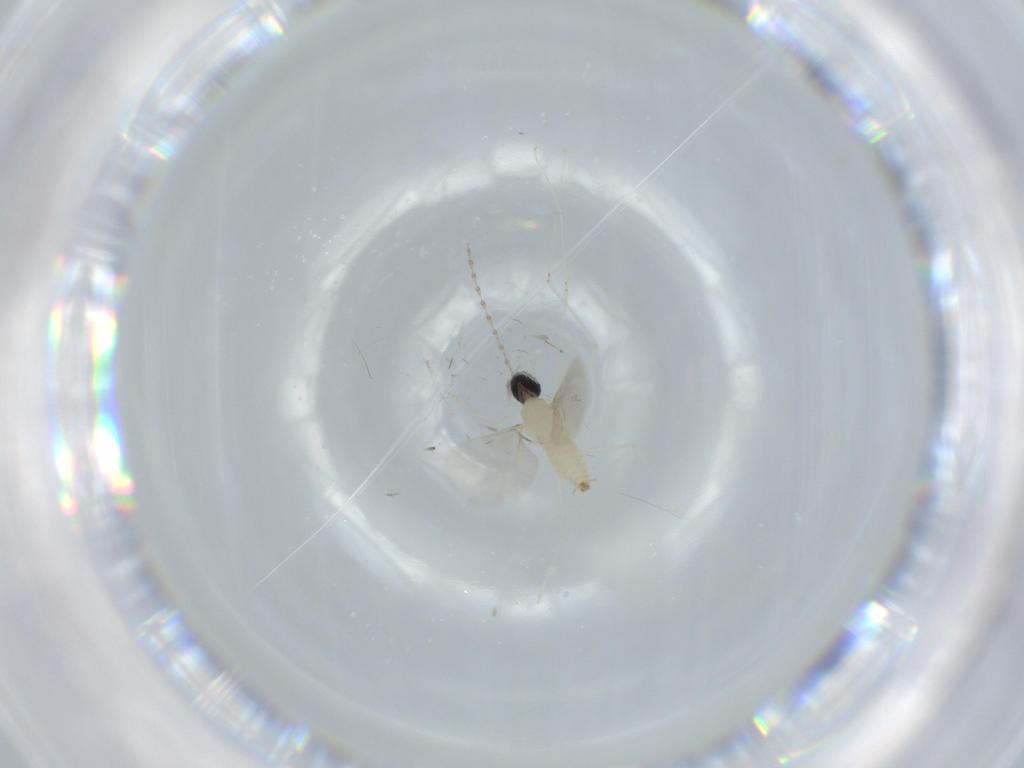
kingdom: Animalia
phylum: Arthropoda
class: Insecta
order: Diptera
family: Cecidomyiidae
